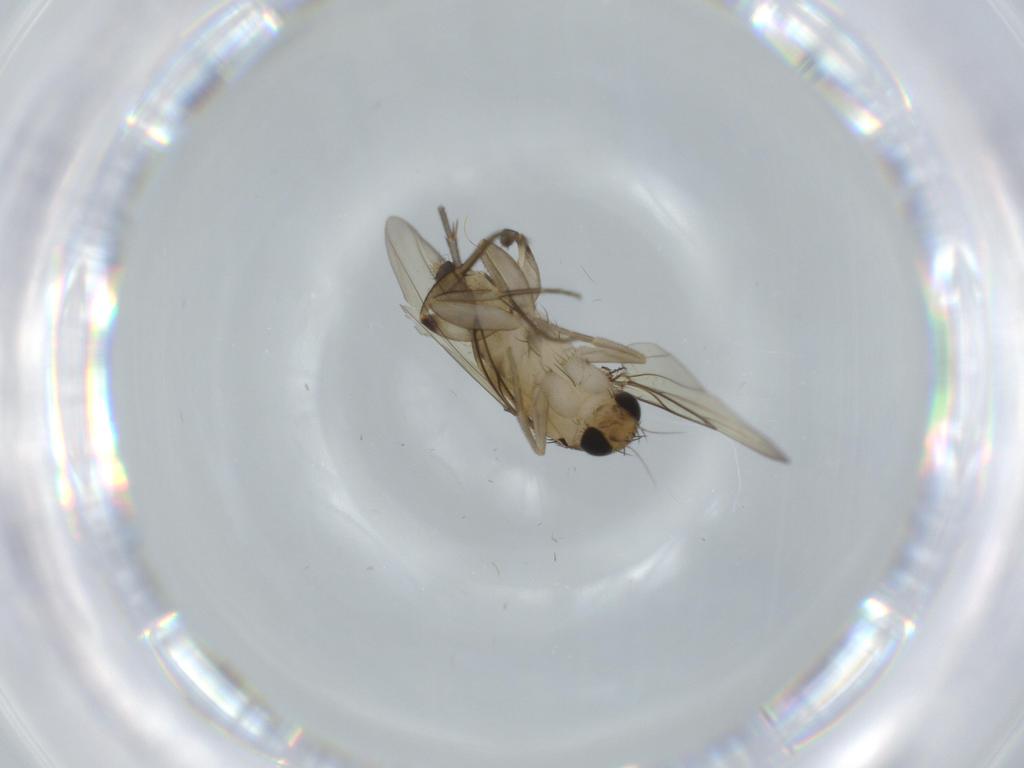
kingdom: Animalia
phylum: Arthropoda
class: Insecta
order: Diptera
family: Phoridae
